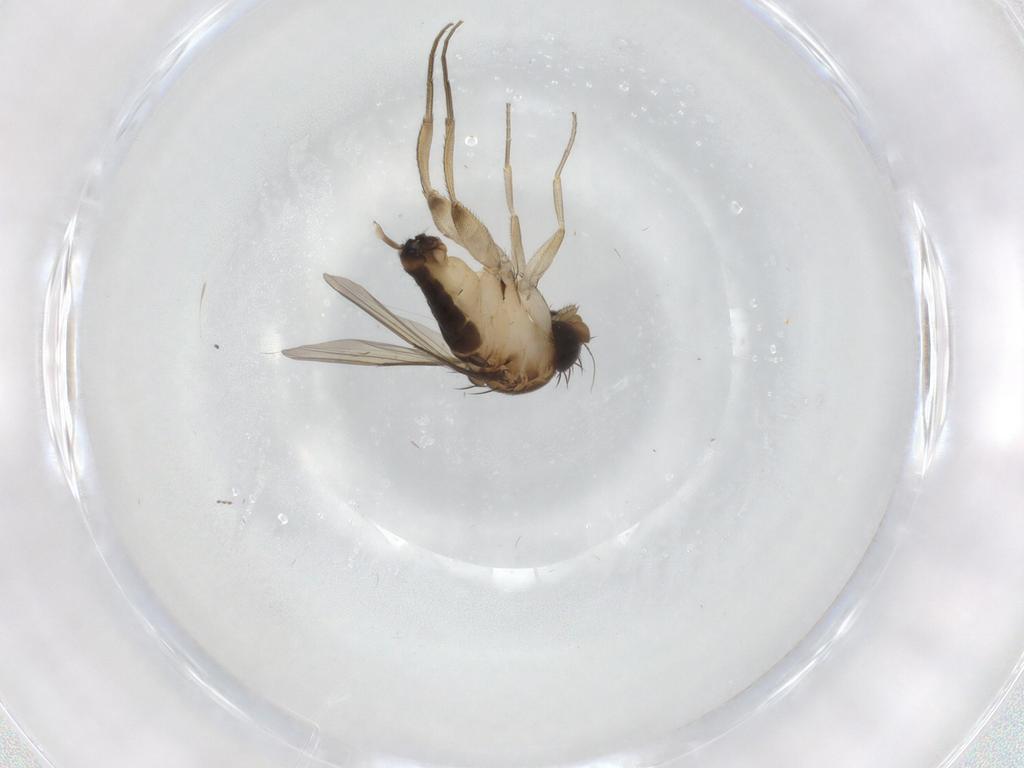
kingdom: Animalia
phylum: Arthropoda
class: Insecta
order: Diptera
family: Phoridae
